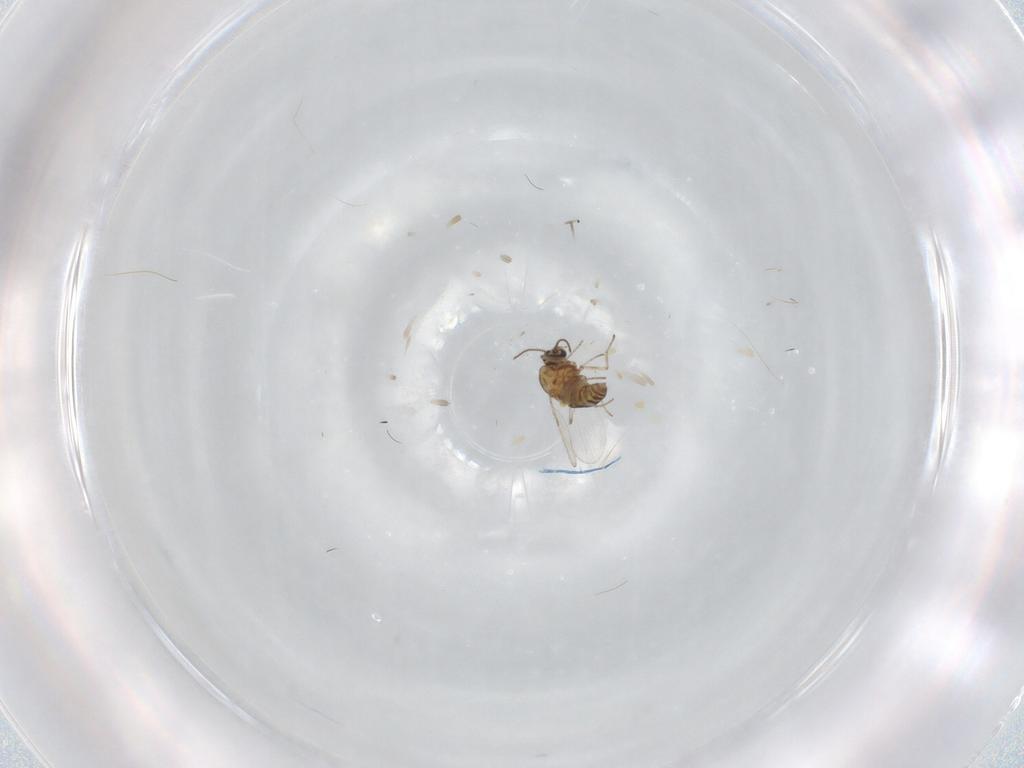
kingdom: Animalia
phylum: Arthropoda
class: Insecta
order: Diptera
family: Ceratopogonidae
